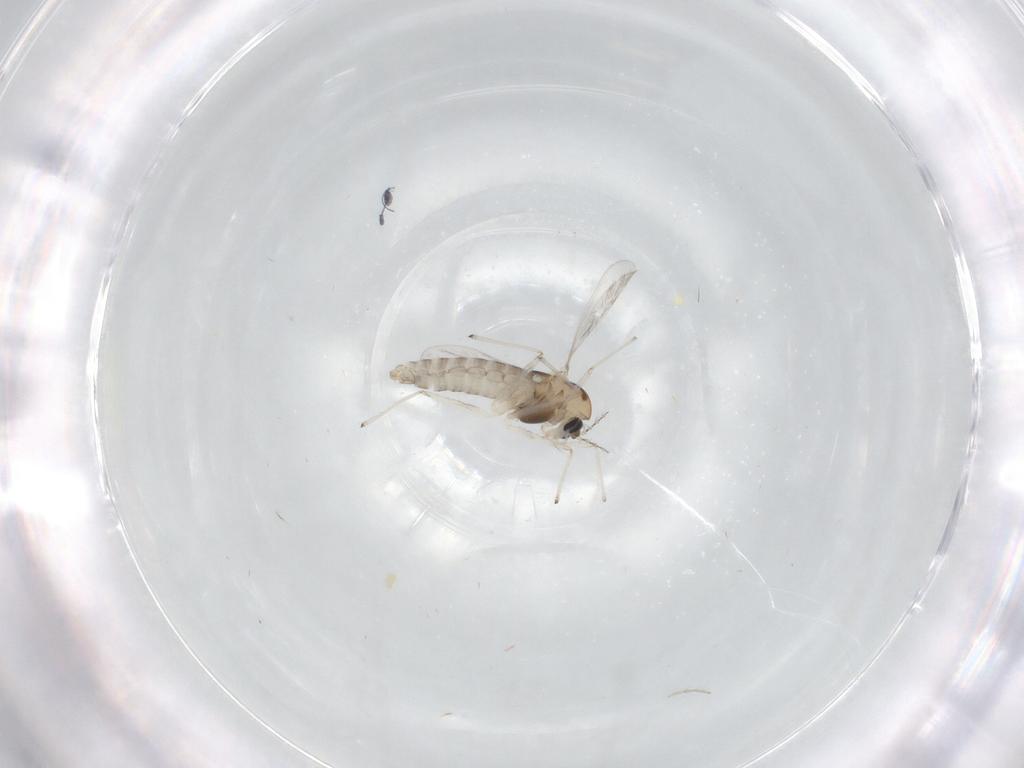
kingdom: Animalia
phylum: Arthropoda
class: Insecta
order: Diptera
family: Chironomidae
